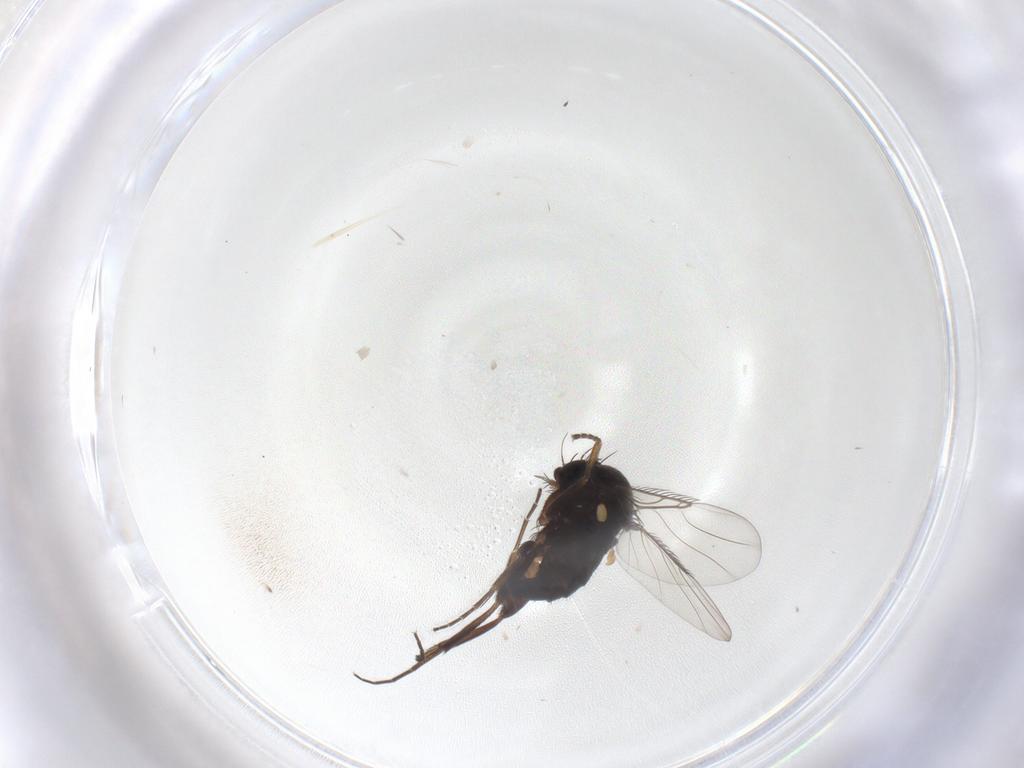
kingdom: Animalia
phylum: Arthropoda
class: Insecta
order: Diptera
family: Phoridae
